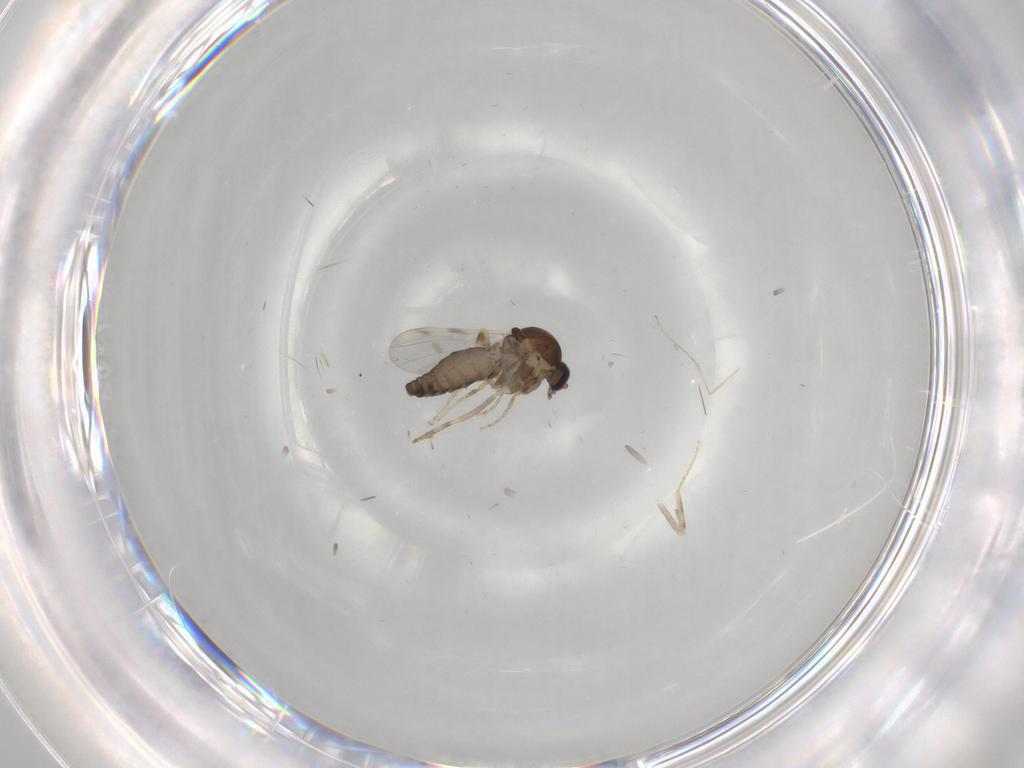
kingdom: Animalia
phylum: Arthropoda
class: Insecta
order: Diptera
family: Ceratopogonidae
